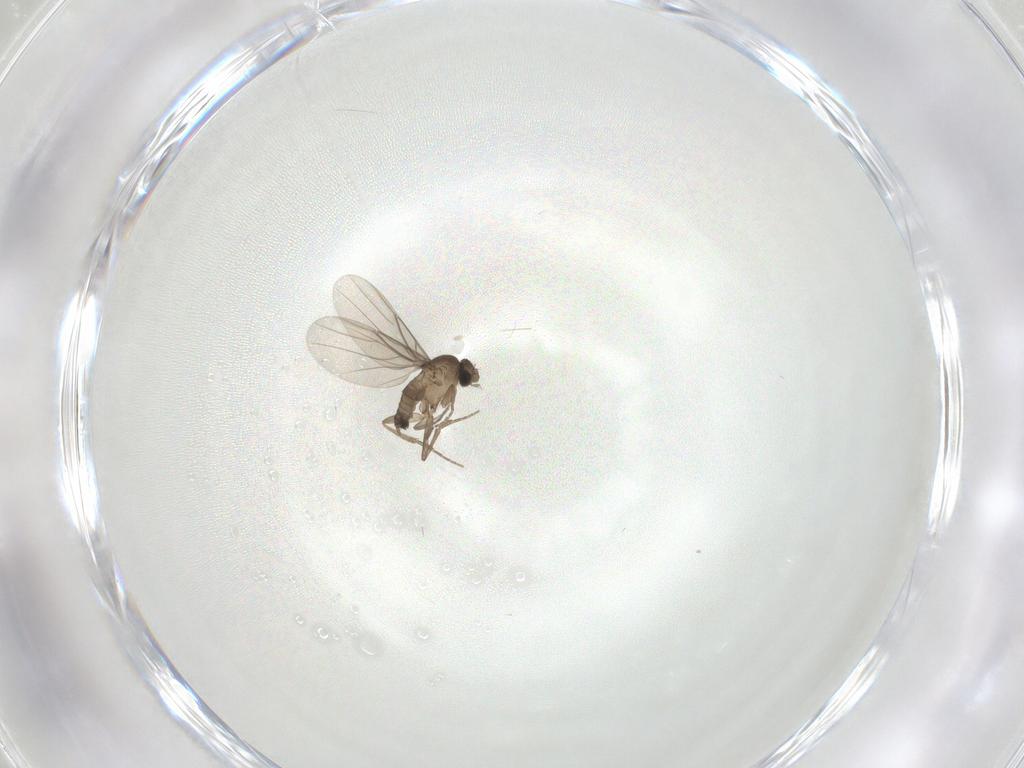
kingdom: Animalia
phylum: Arthropoda
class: Insecta
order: Diptera
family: Phoridae
